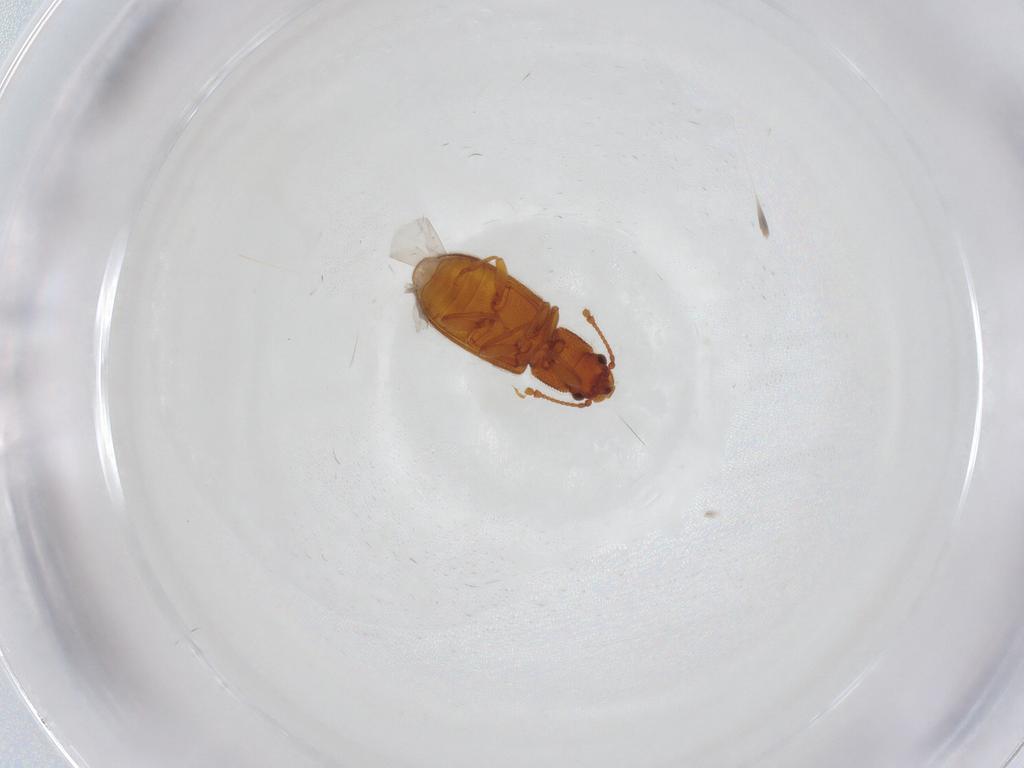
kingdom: Animalia
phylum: Arthropoda
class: Insecta
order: Coleoptera
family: Mycetophagidae
